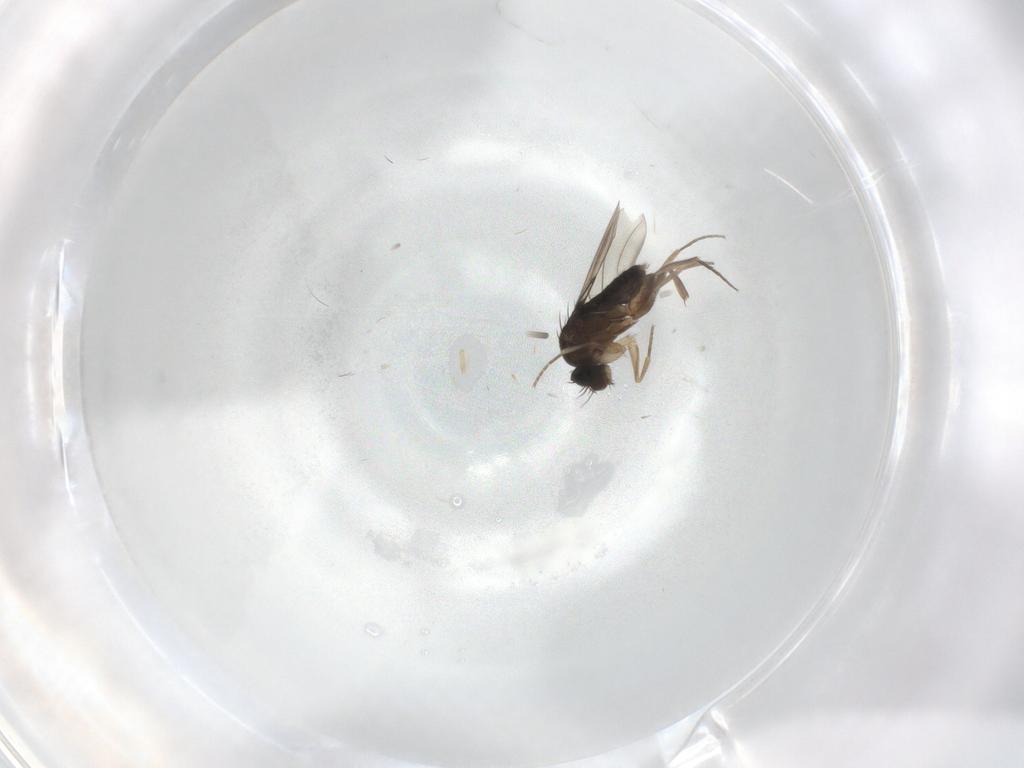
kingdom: Animalia
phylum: Arthropoda
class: Insecta
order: Diptera
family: Phoridae
